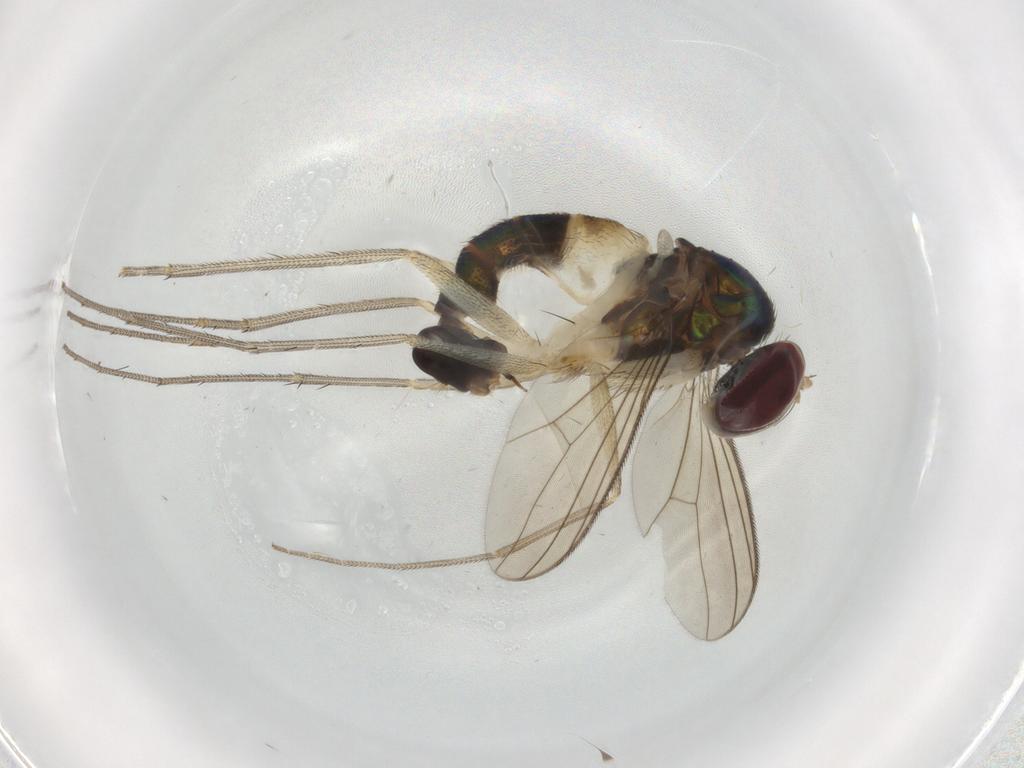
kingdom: Animalia
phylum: Arthropoda
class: Insecta
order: Diptera
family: Keroplatidae
